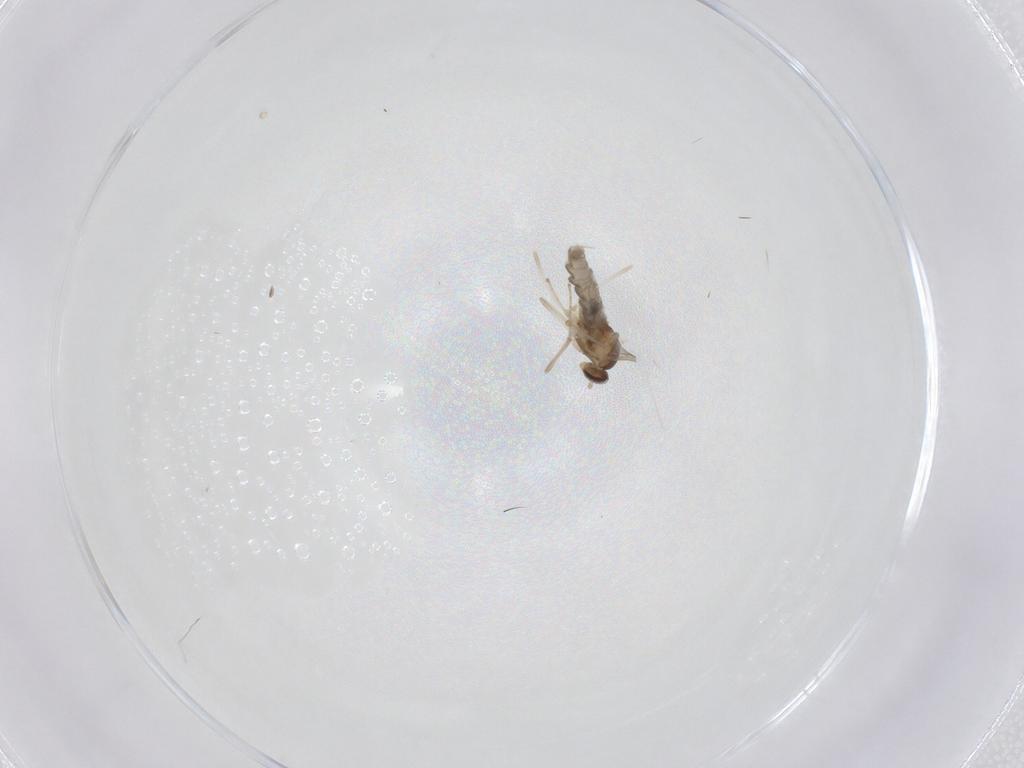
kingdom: Animalia
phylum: Arthropoda
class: Insecta
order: Diptera
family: Cecidomyiidae
